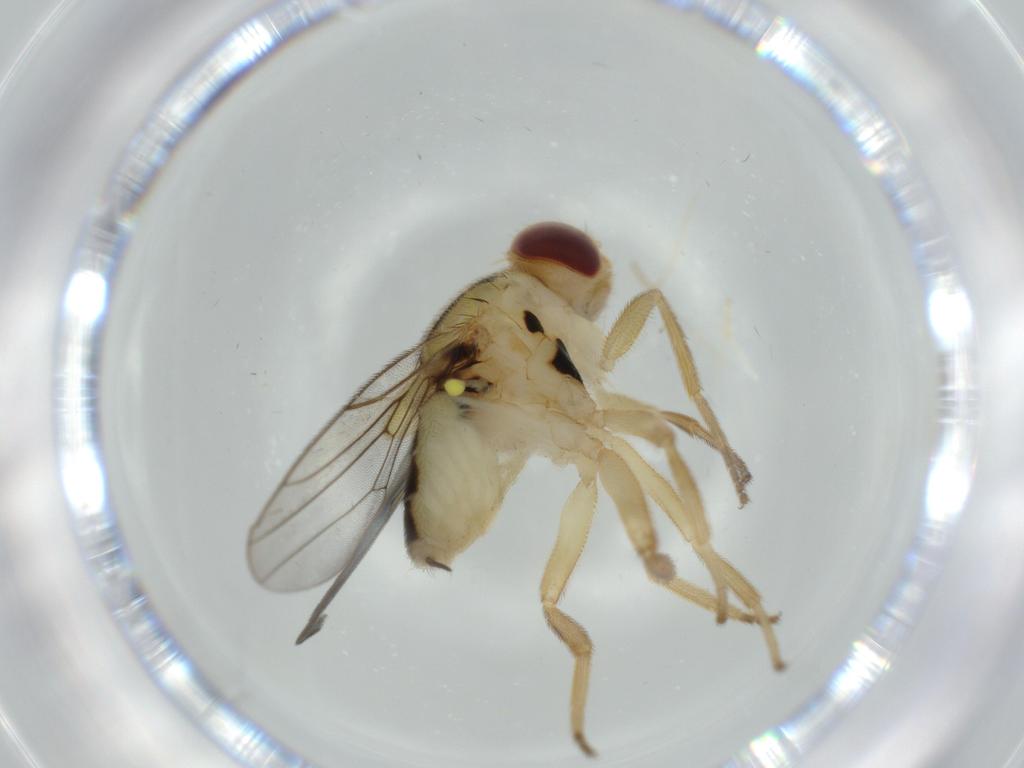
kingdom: Animalia
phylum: Arthropoda
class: Insecta
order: Diptera
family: Chloropidae
